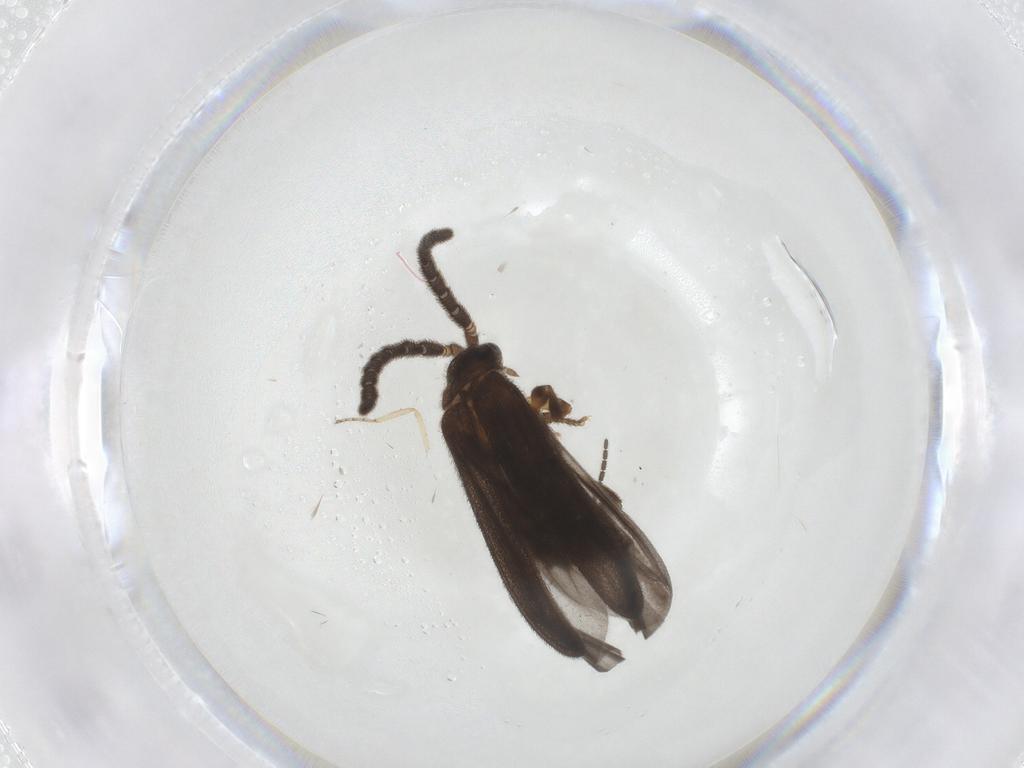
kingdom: Animalia
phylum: Arthropoda
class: Insecta
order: Coleoptera
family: Lycidae
